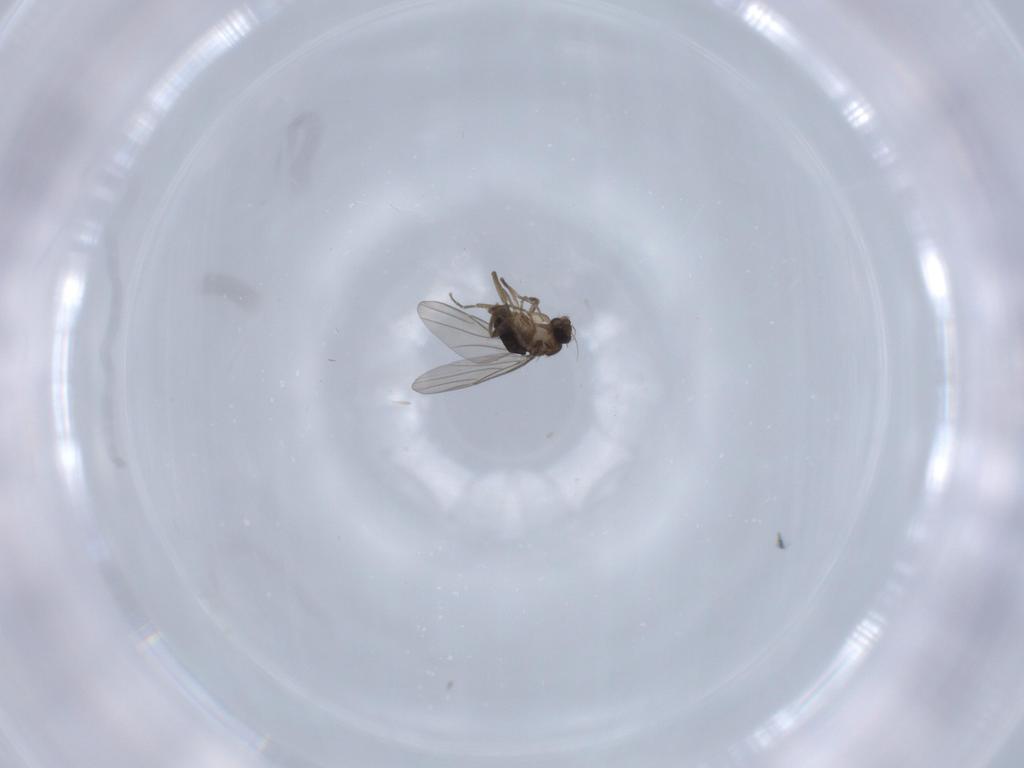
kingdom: Animalia
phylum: Arthropoda
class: Insecta
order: Diptera
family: Phoridae
